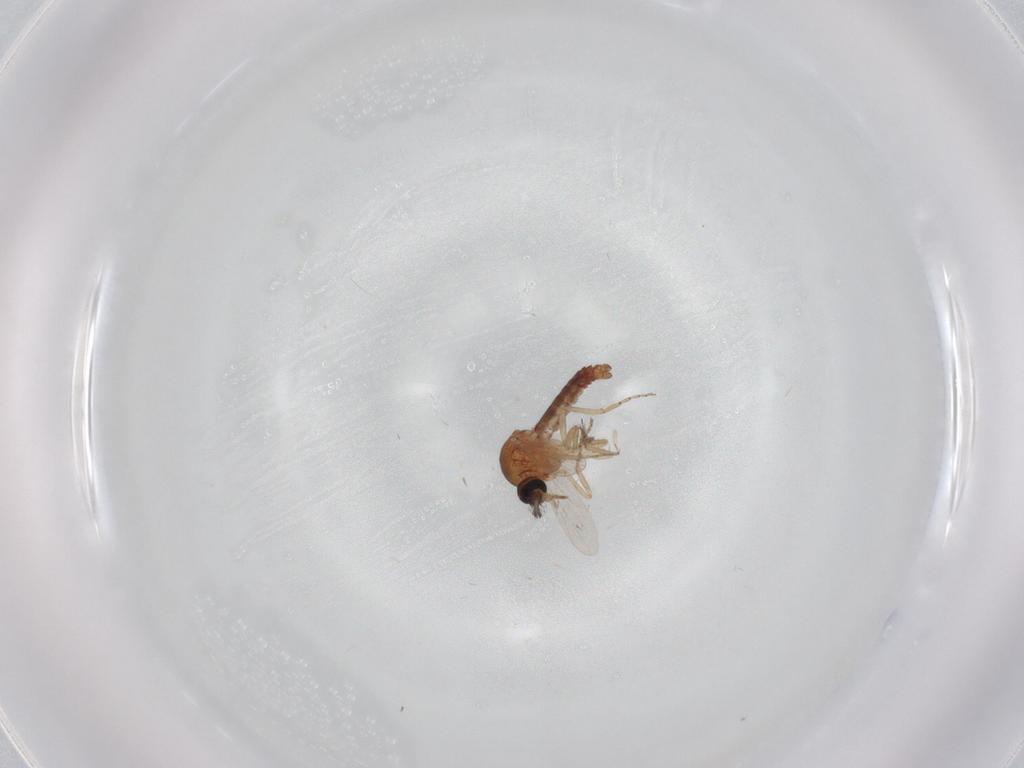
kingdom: Animalia
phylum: Arthropoda
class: Insecta
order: Diptera
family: Ceratopogonidae
